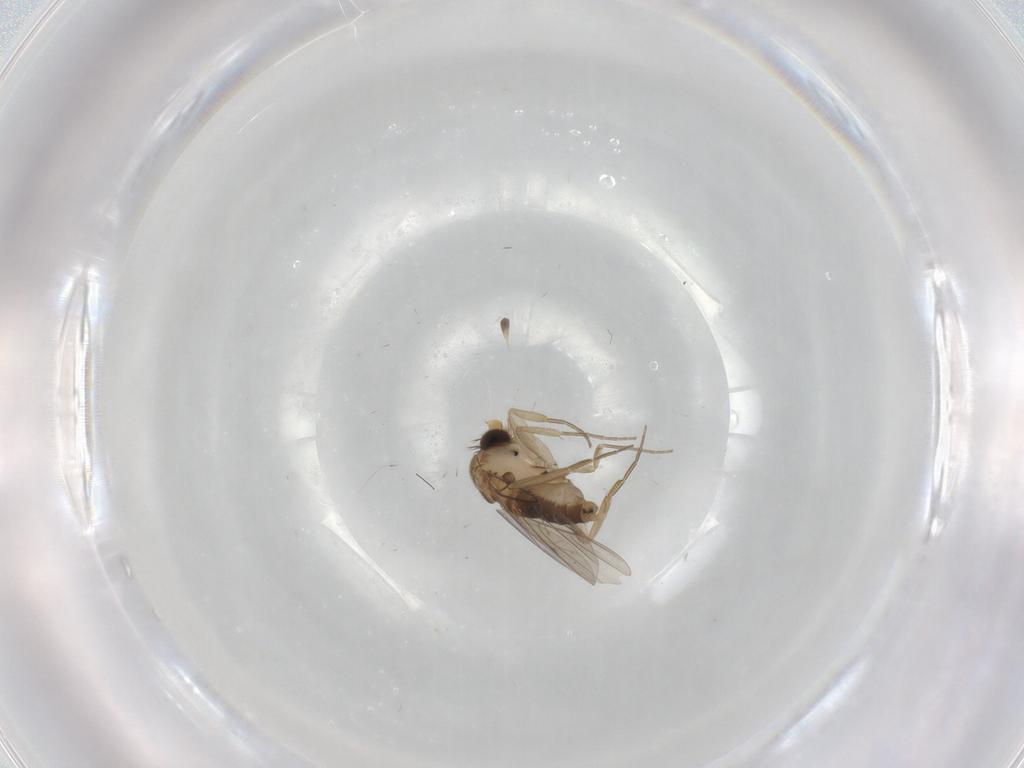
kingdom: Animalia
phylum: Arthropoda
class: Insecta
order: Diptera
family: Phoridae
